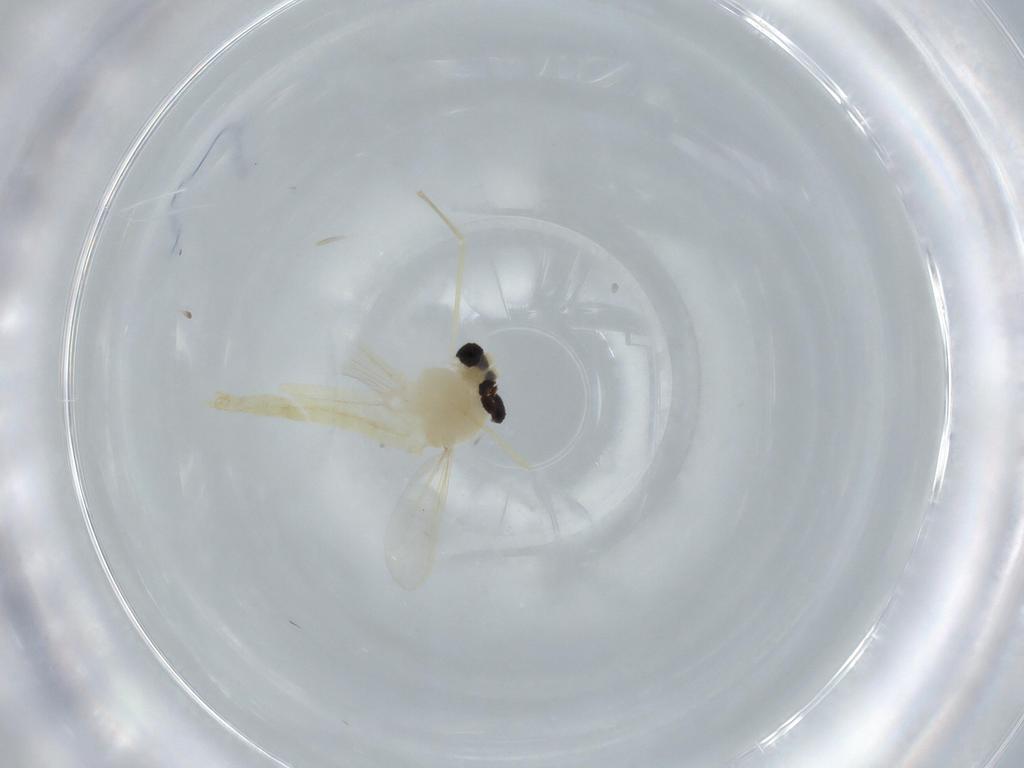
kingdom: Animalia
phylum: Arthropoda
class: Insecta
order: Diptera
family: Chironomidae
